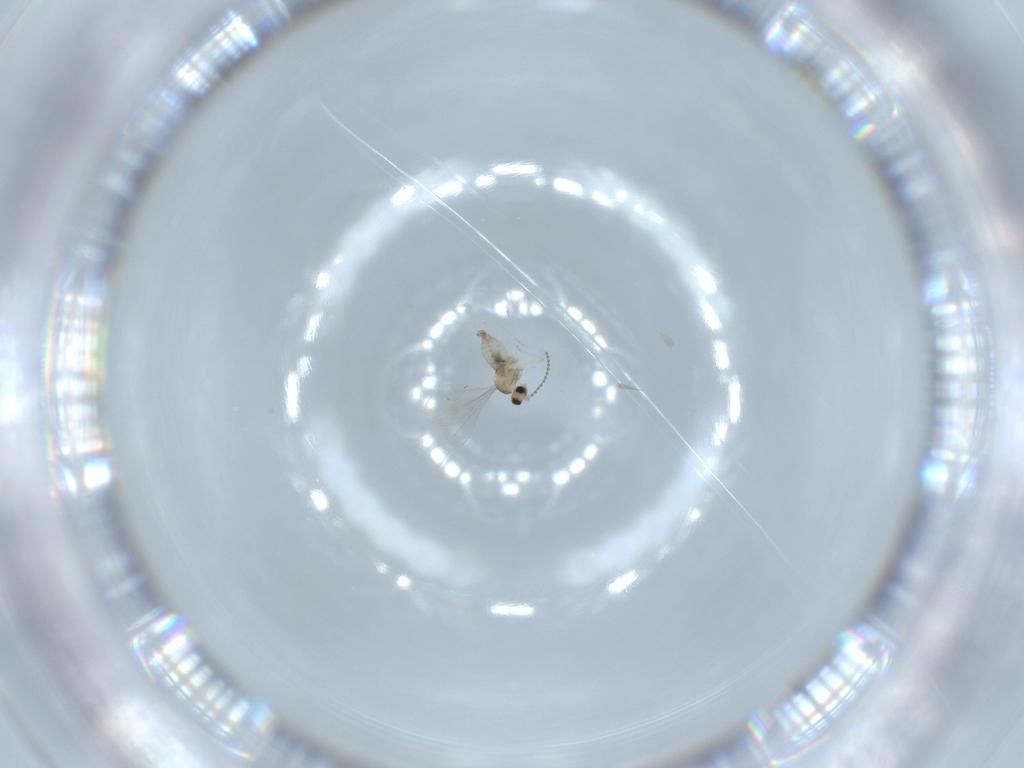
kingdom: Animalia
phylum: Arthropoda
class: Insecta
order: Diptera
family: Cecidomyiidae
